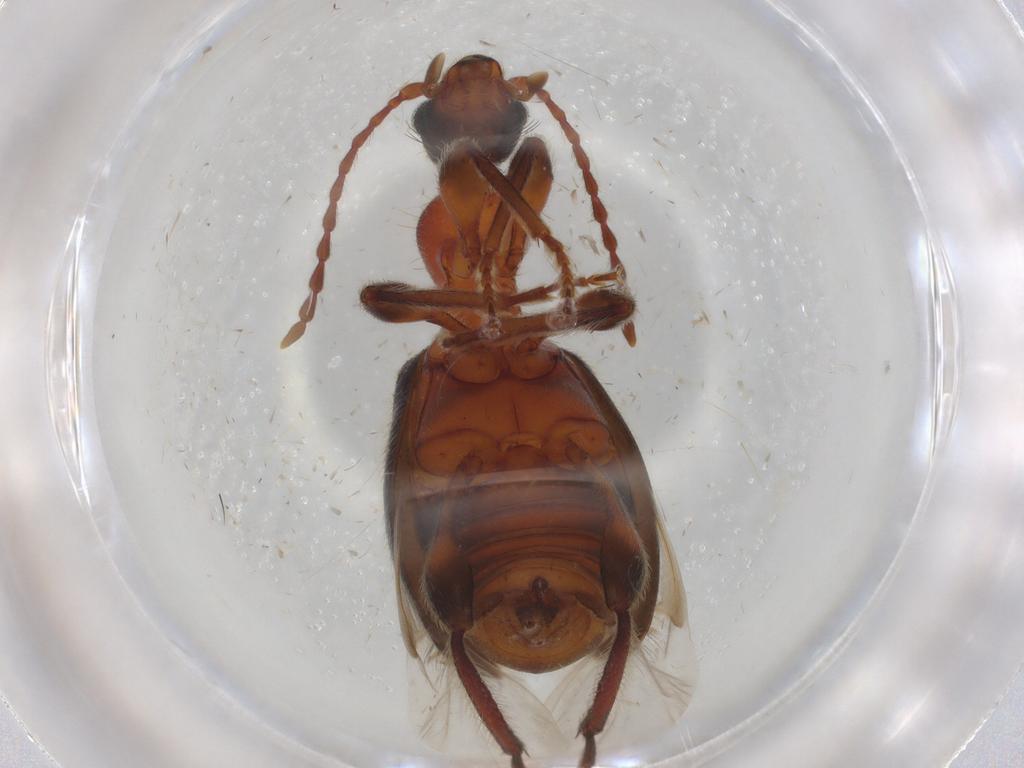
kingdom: Animalia
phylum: Arthropoda
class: Insecta
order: Coleoptera
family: Anthicidae
